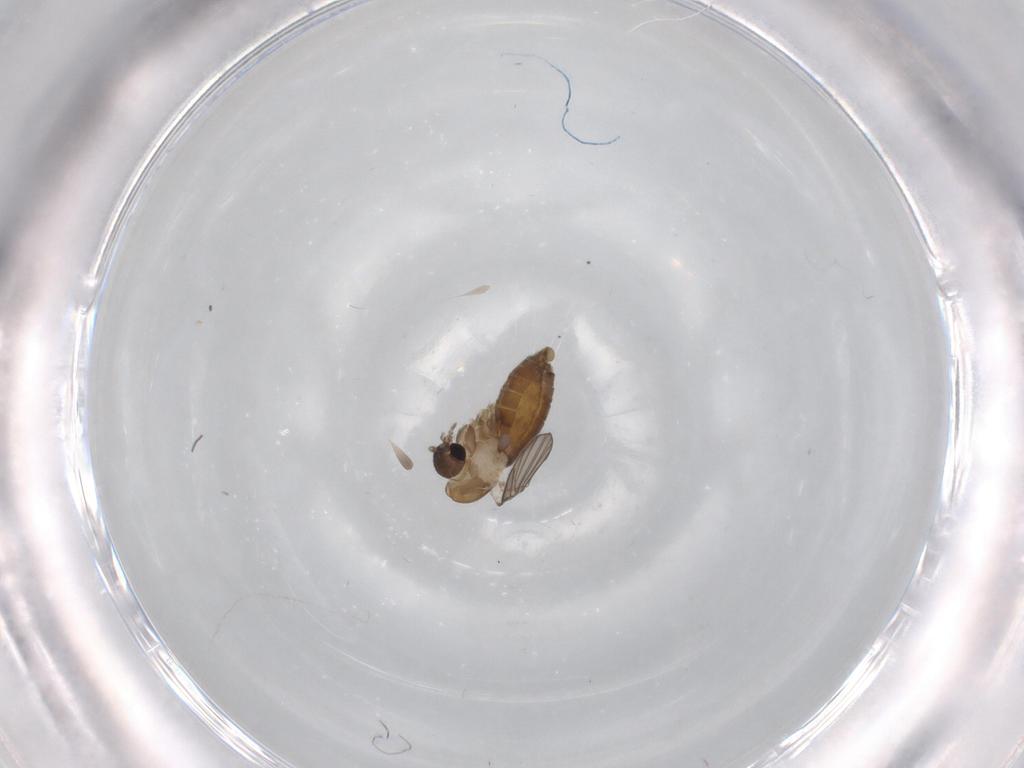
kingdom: Animalia
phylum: Arthropoda
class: Insecta
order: Diptera
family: Psychodidae
